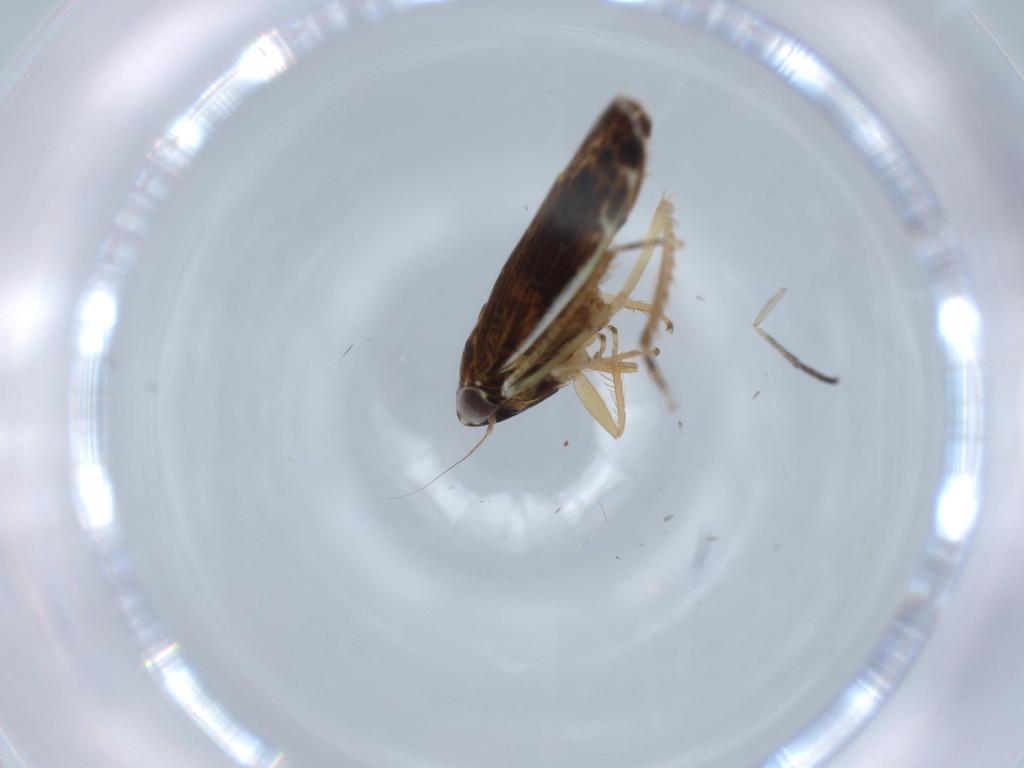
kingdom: Animalia
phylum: Arthropoda
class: Insecta
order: Hemiptera
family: Cicadellidae
